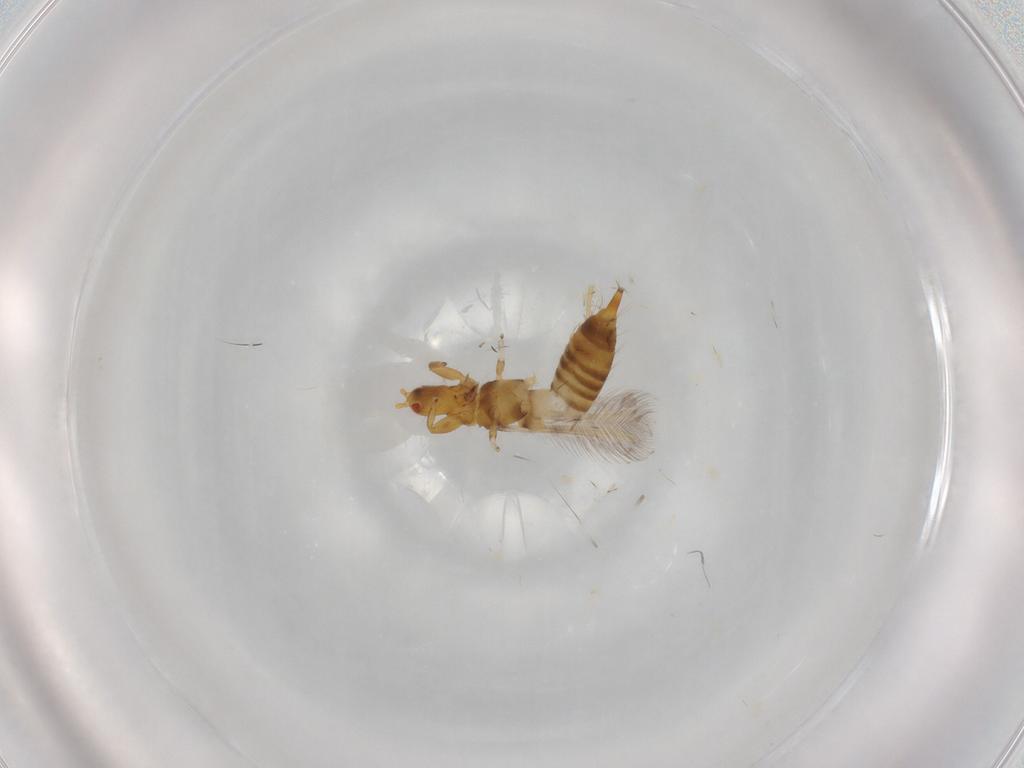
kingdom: Animalia
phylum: Arthropoda
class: Insecta
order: Thysanoptera
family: Phlaeothripidae
